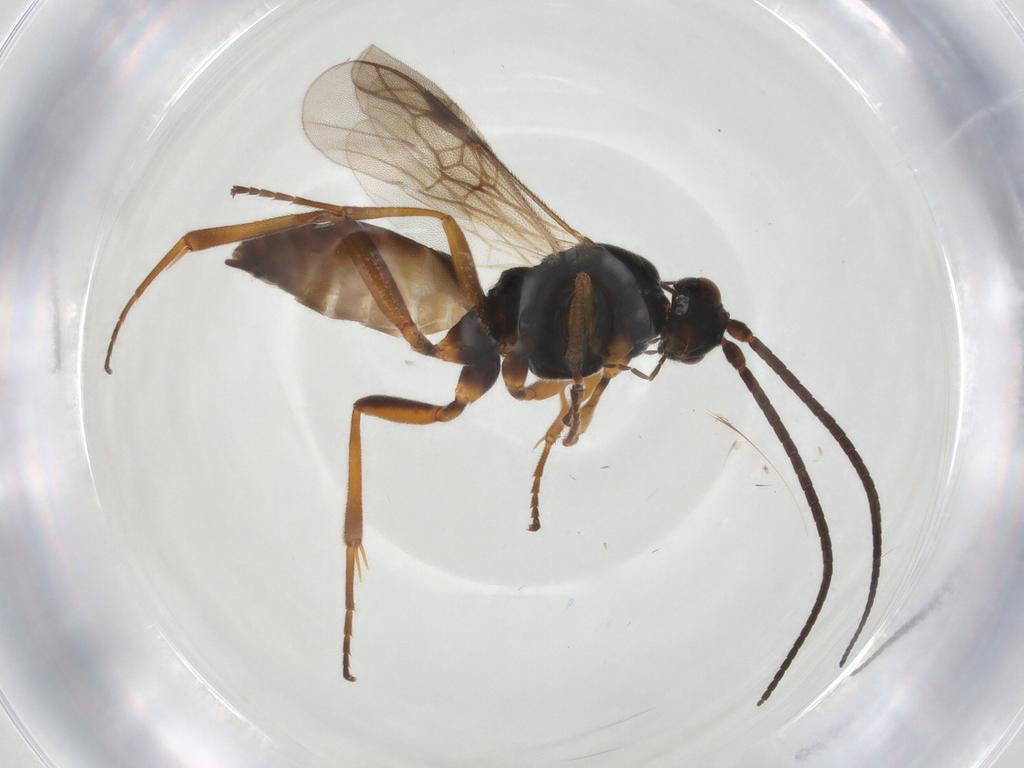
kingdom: Animalia
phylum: Arthropoda
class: Insecta
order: Hymenoptera
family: Braconidae
